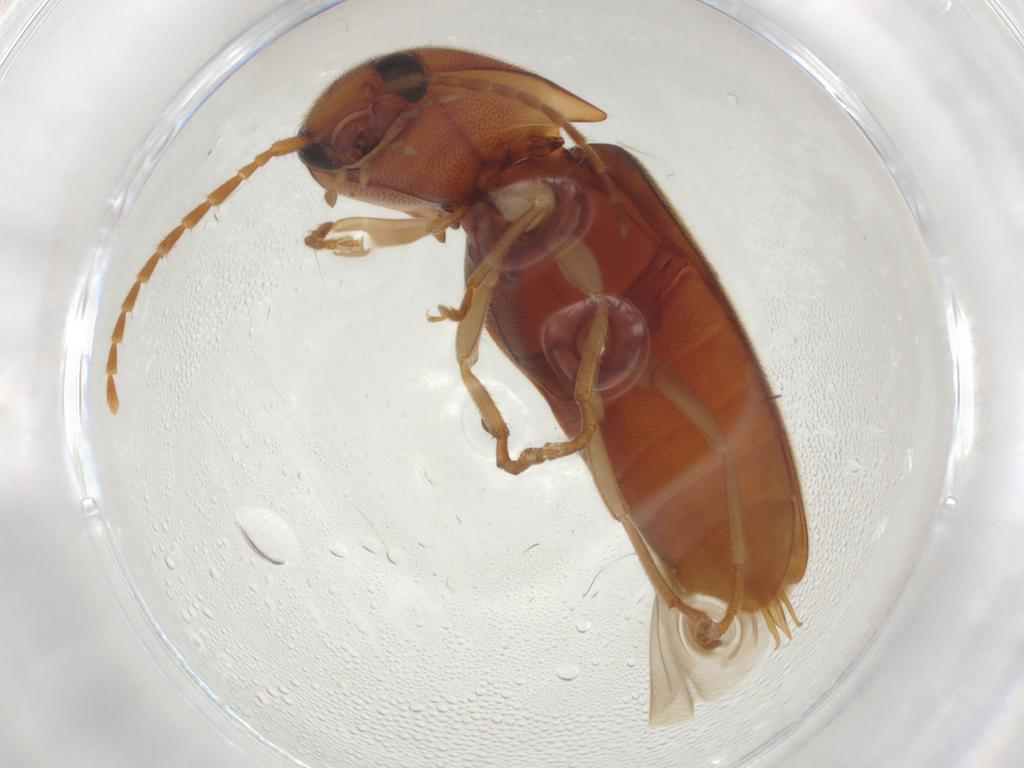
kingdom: Animalia
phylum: Arthropoda
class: Insecta
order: Coleoptera
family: Elateridae
